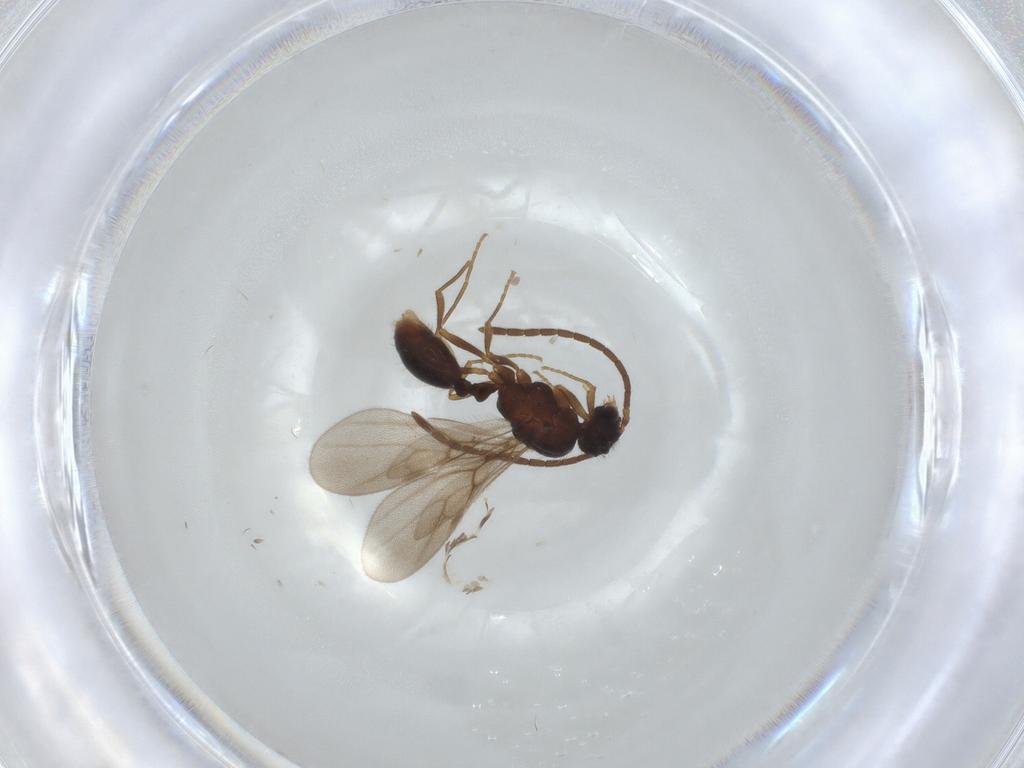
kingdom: Animalia
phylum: Arthropoda
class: Insecta
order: Hymenoptera
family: Formicidae
